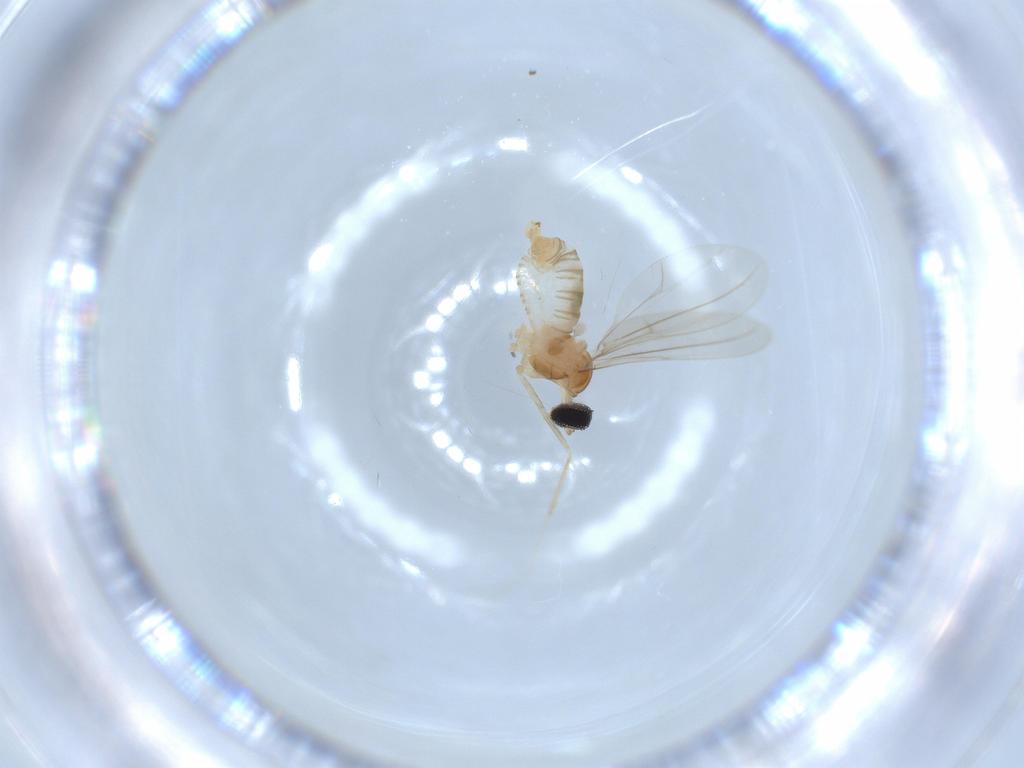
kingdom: Animalia
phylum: Arthropoda
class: Insecta
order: Diptera
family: Cecidomyiidae
